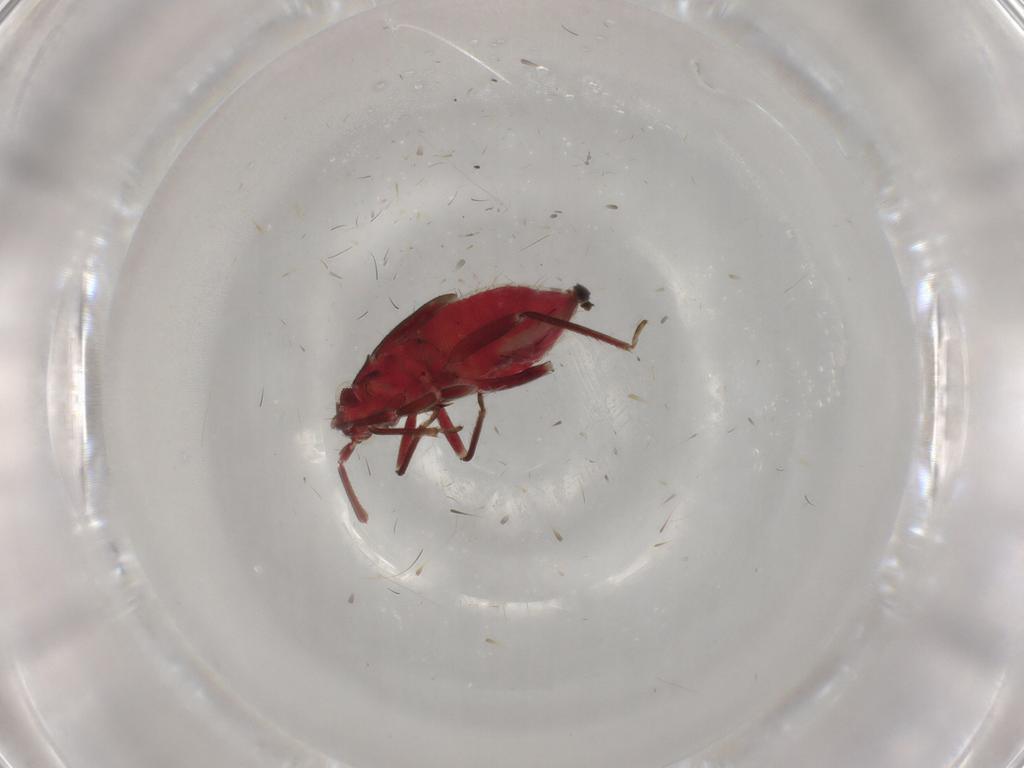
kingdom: Animalia
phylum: Arthropoda
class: Insecta
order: Hemiptera
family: Miridae
